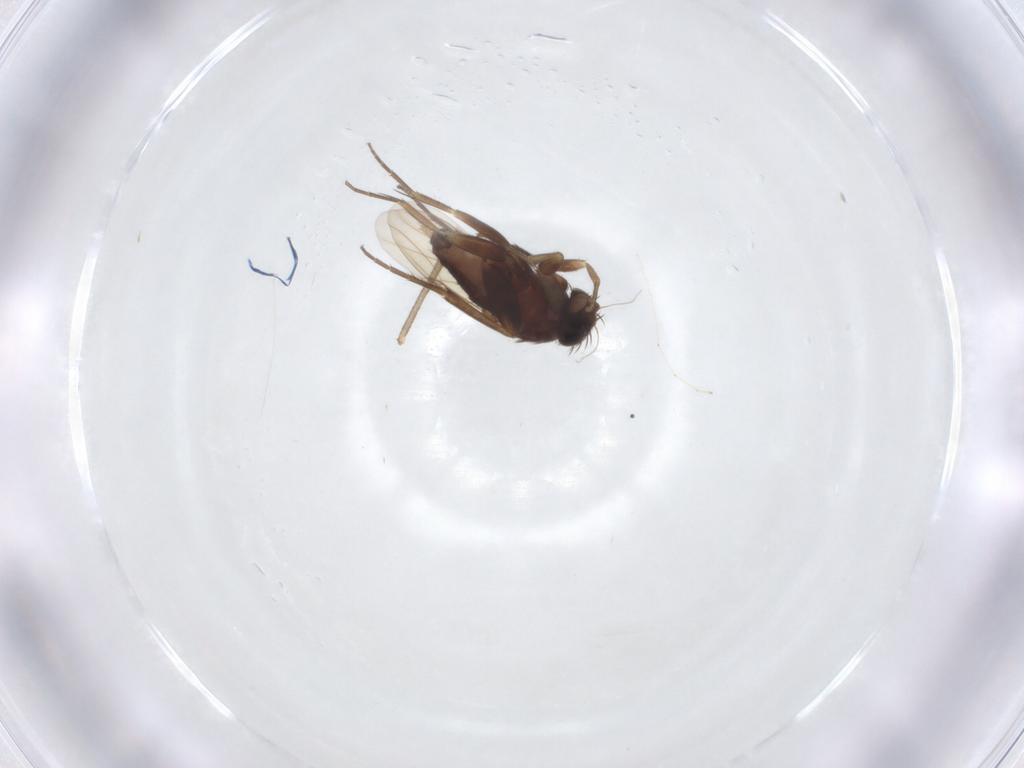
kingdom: Animalia
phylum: Arthropoda
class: Insecta
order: Diptera
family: Phoridae
